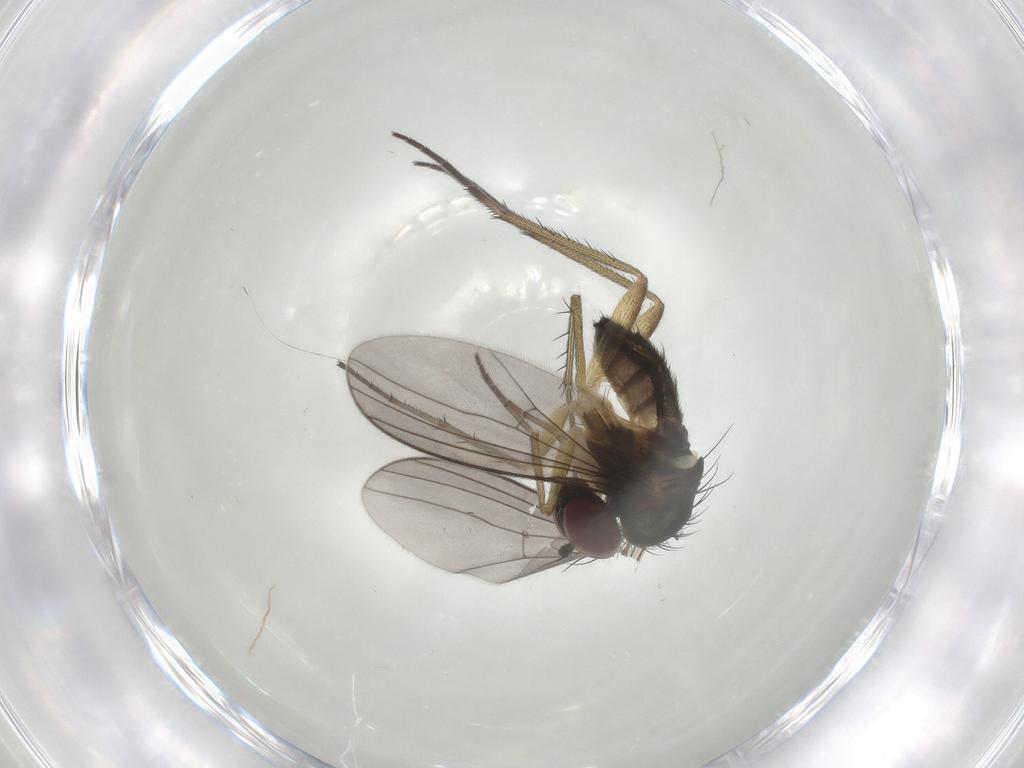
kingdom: Animalia
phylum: Arthropoda
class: Insecta
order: Diptera
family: Dolichopodidae
